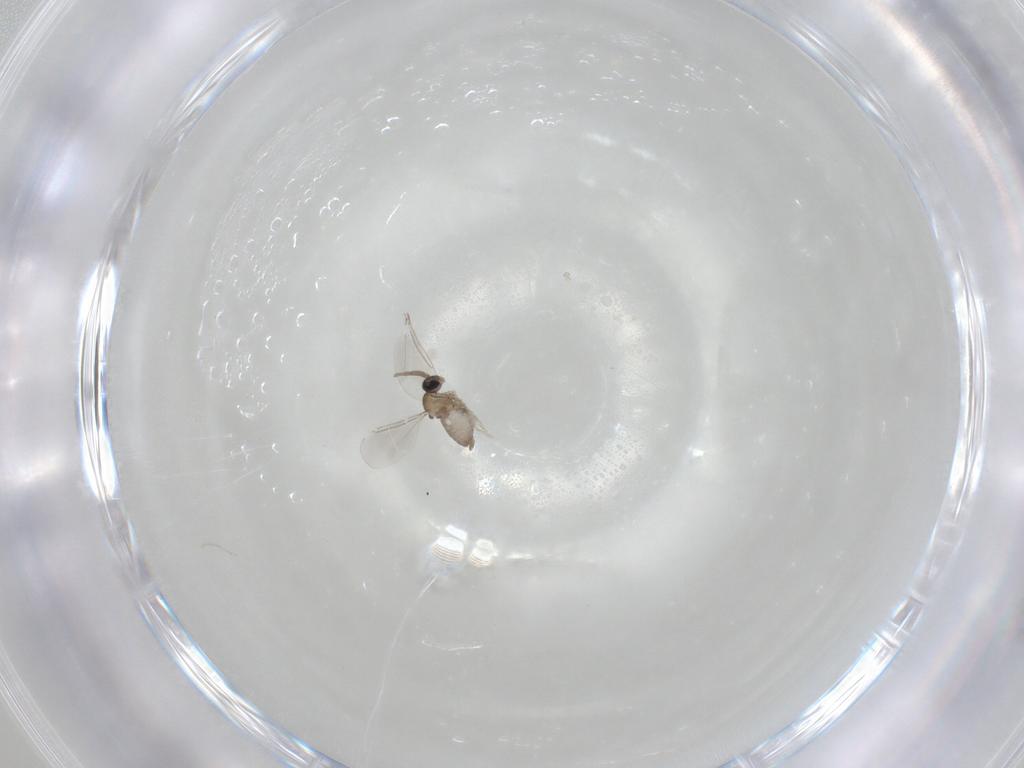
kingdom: Animalia
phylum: Arthropoda
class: Insecta
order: Diptera
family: Cecidomyiidae
